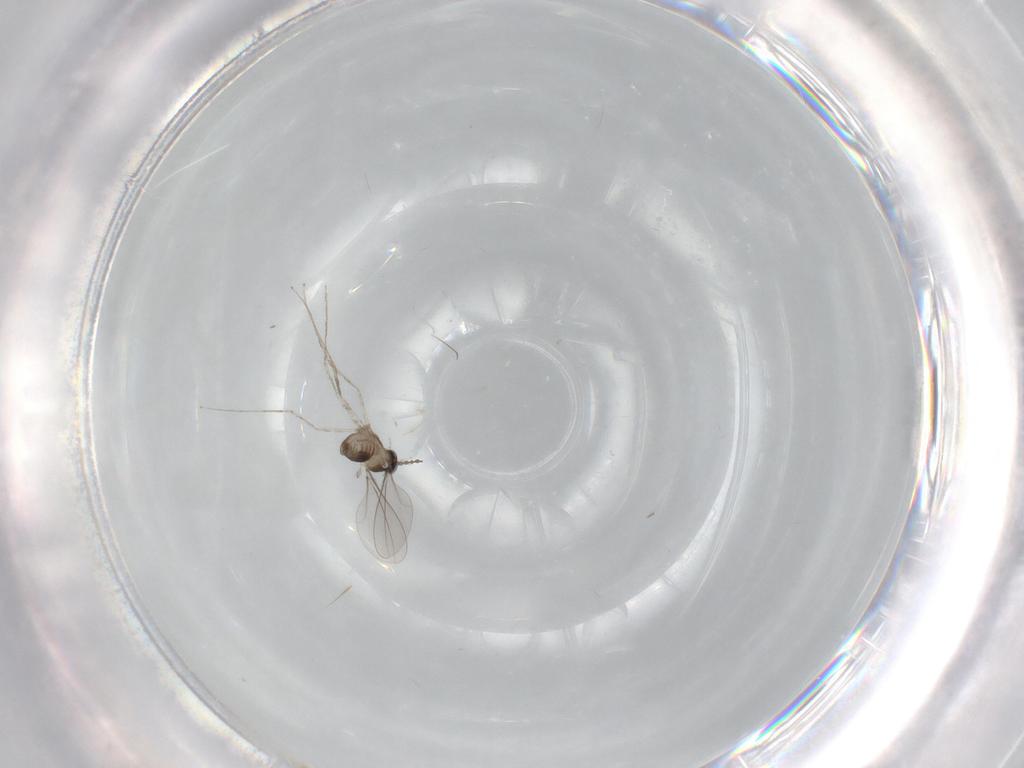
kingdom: Animalia
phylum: Arthropoda
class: Insecta
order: Diptera
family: Cecidomyiidae
